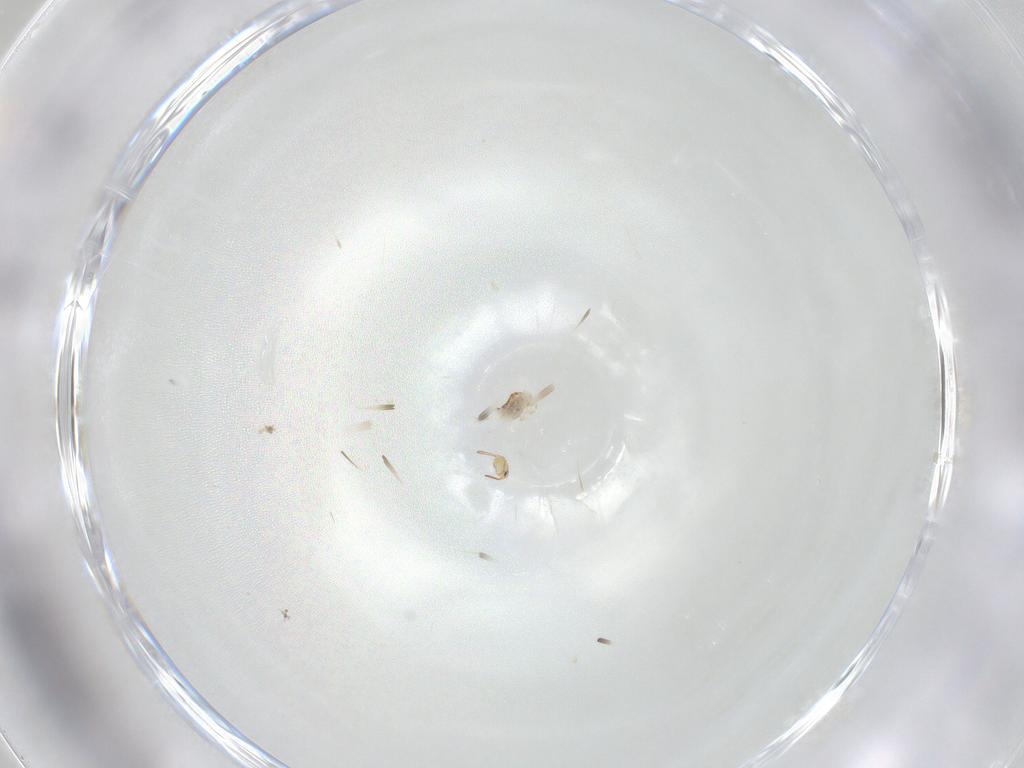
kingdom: Animalia
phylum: Arthropoda
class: Collembola
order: Symphypleona
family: Bourletiellidae
